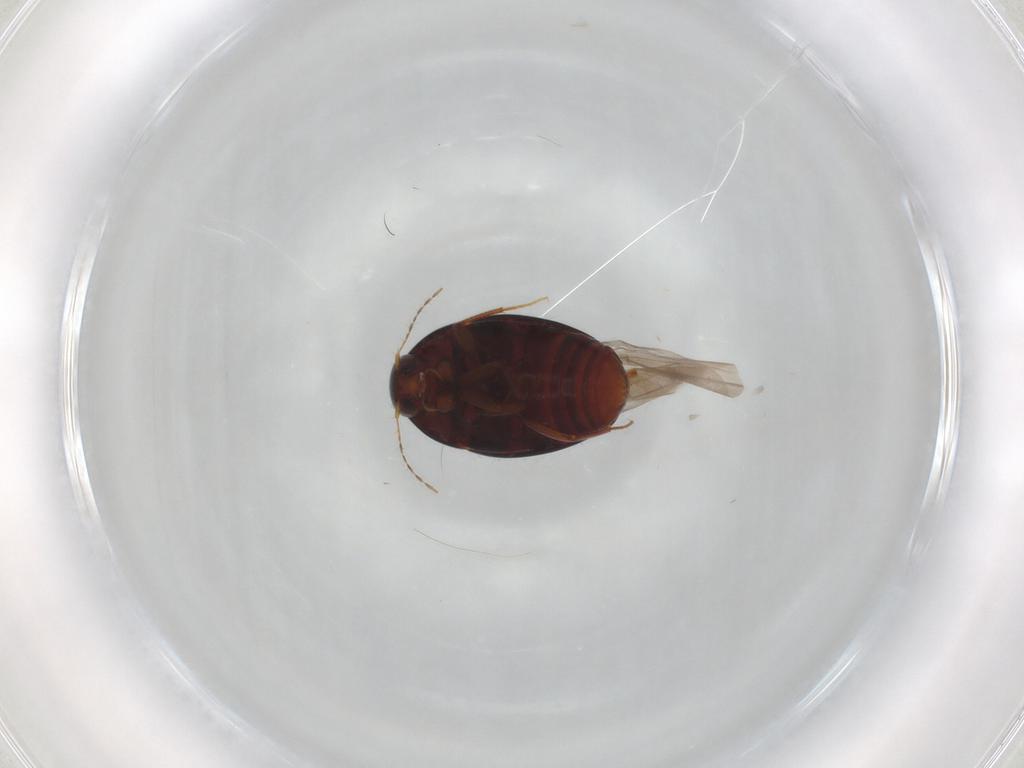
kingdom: Animalia
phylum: Arthropoda
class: Insecta
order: Coleoptera
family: Staphylinidae
